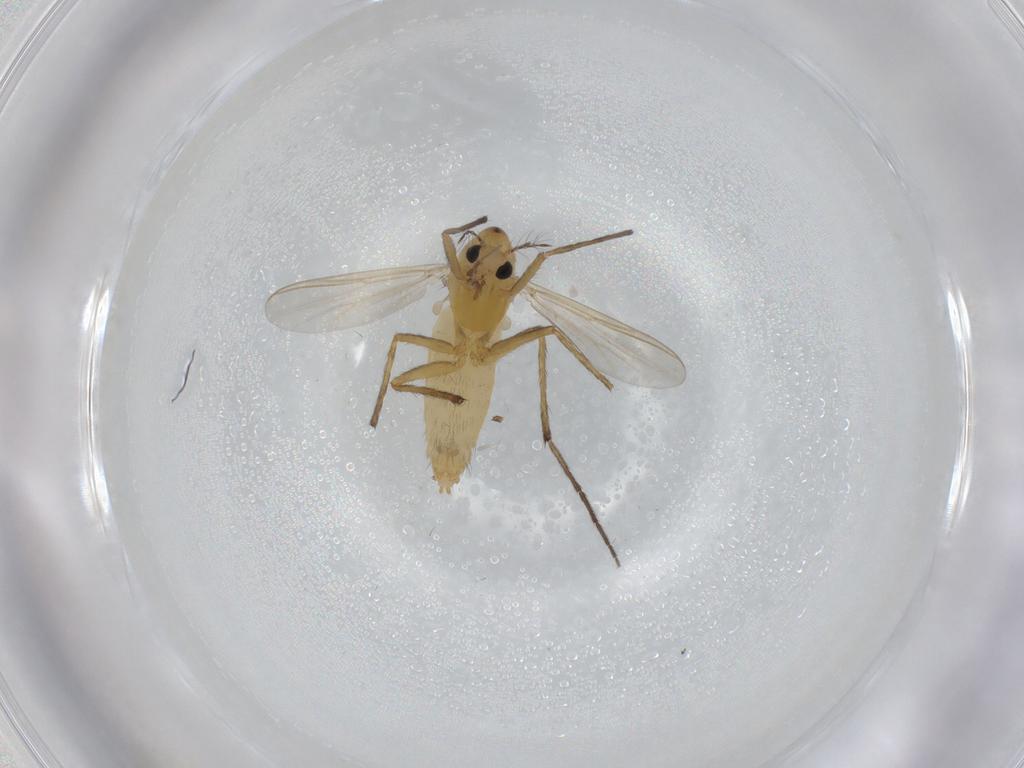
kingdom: Animalia
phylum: Arthropoda
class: Insecta
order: Diptera
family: Chironomidae
